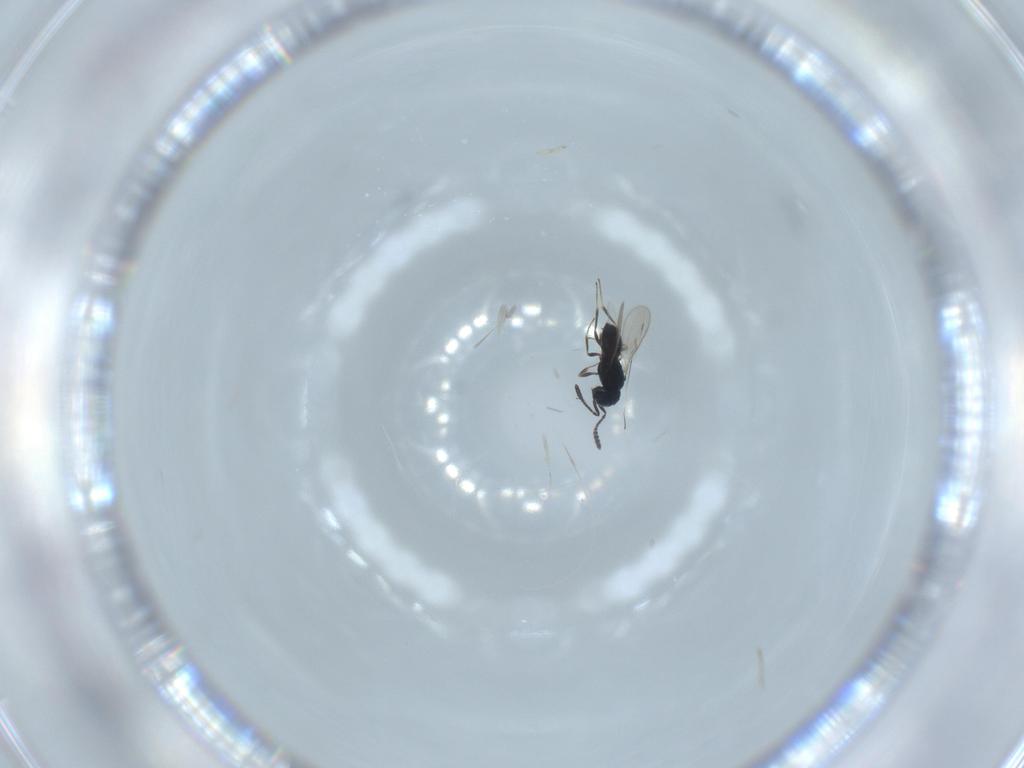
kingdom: Animalia
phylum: Arthropoda
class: Insecta
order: Hymenoptera
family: Scelionidae
